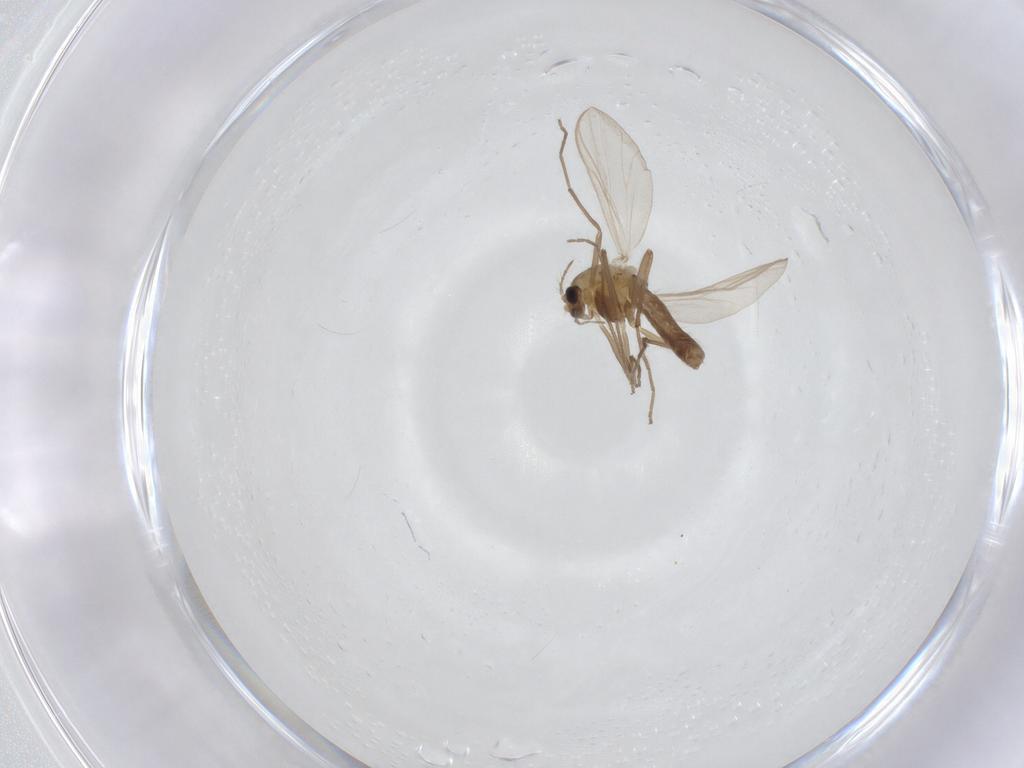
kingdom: Animalia
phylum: Arthropoda
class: Insecta
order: Diptera
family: Chironomidae
